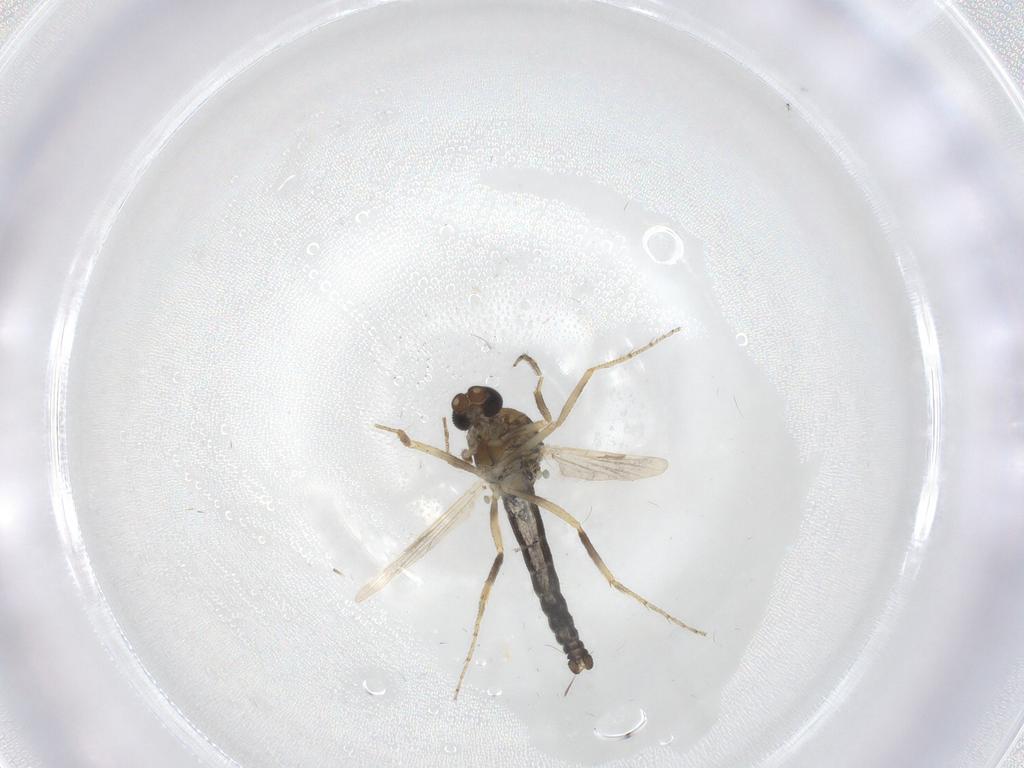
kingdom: Animalia
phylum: Arthropoda
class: Insecta
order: Diptera
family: Ceratopogonidae
